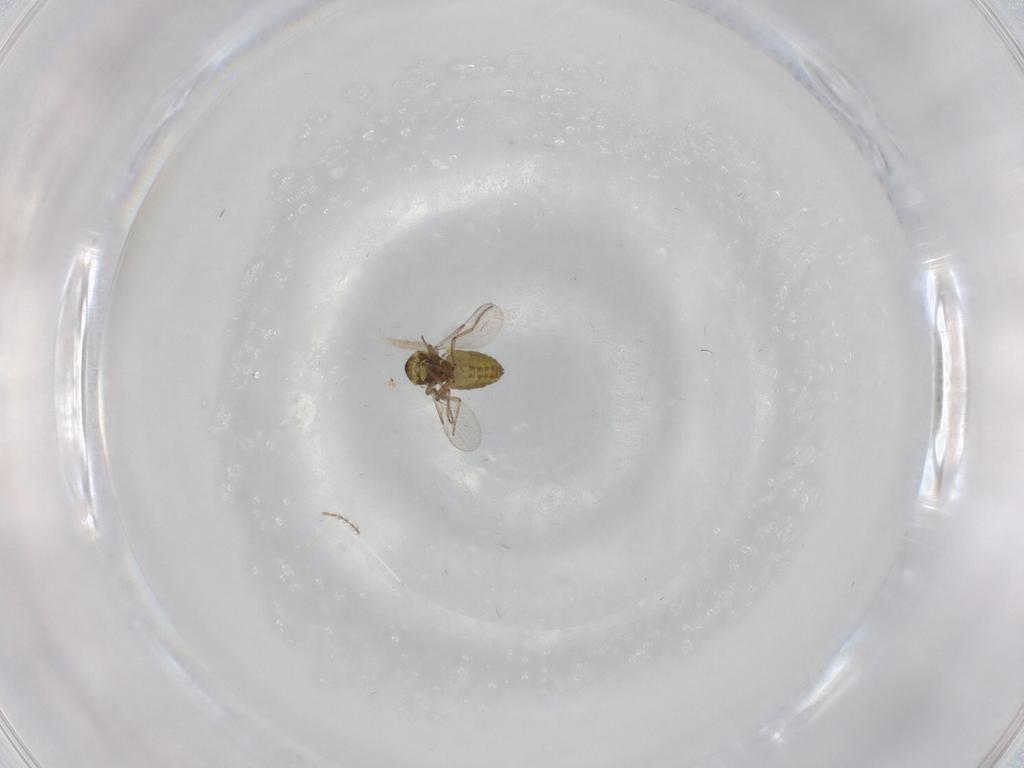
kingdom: Animalia
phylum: Arthropoda
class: Insecta
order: Diptera
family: Ceratopogonidae
